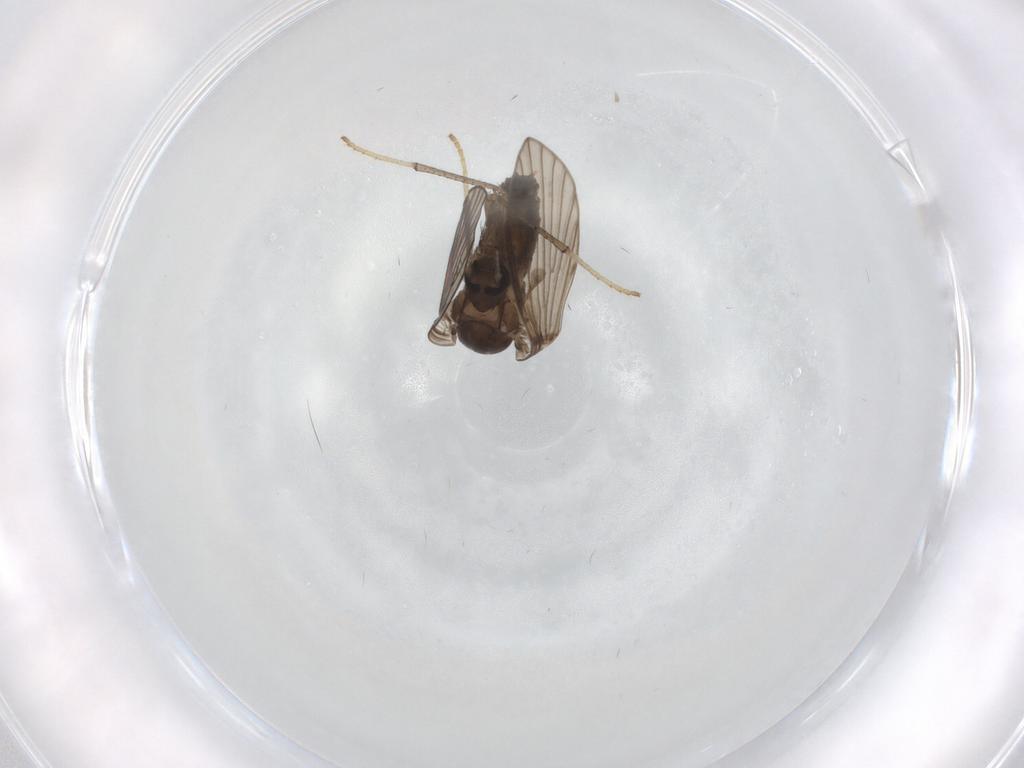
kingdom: Animalia
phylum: Arthropoda
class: Insecta
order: Diptera
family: Psychodidae
